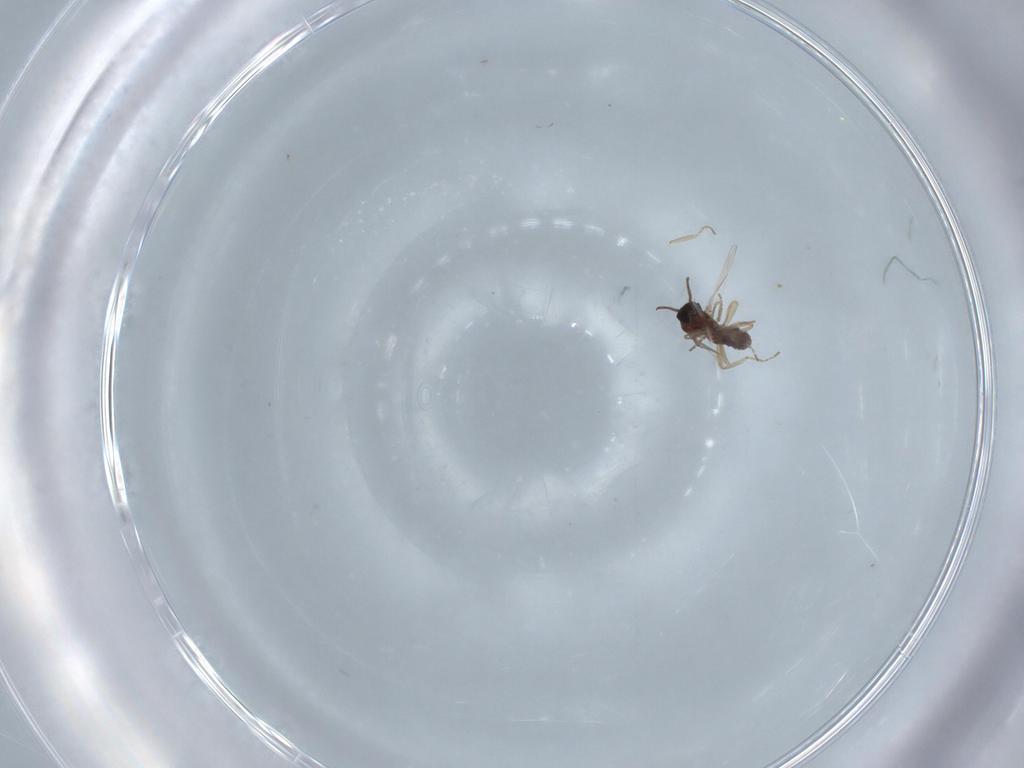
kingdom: Animalia
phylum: Arthropoda
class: Insecta
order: Diptera
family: Ceratopogonidae
